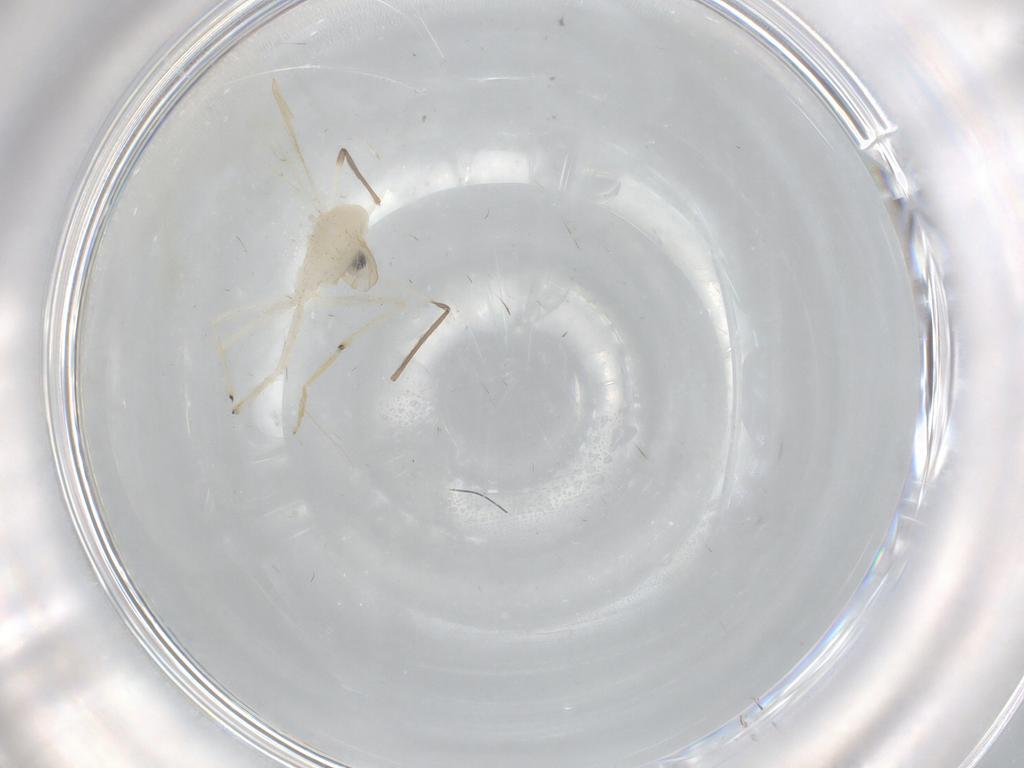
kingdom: Animalia
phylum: Arthropoda
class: Insecta
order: Diptera
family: Chironomidae
